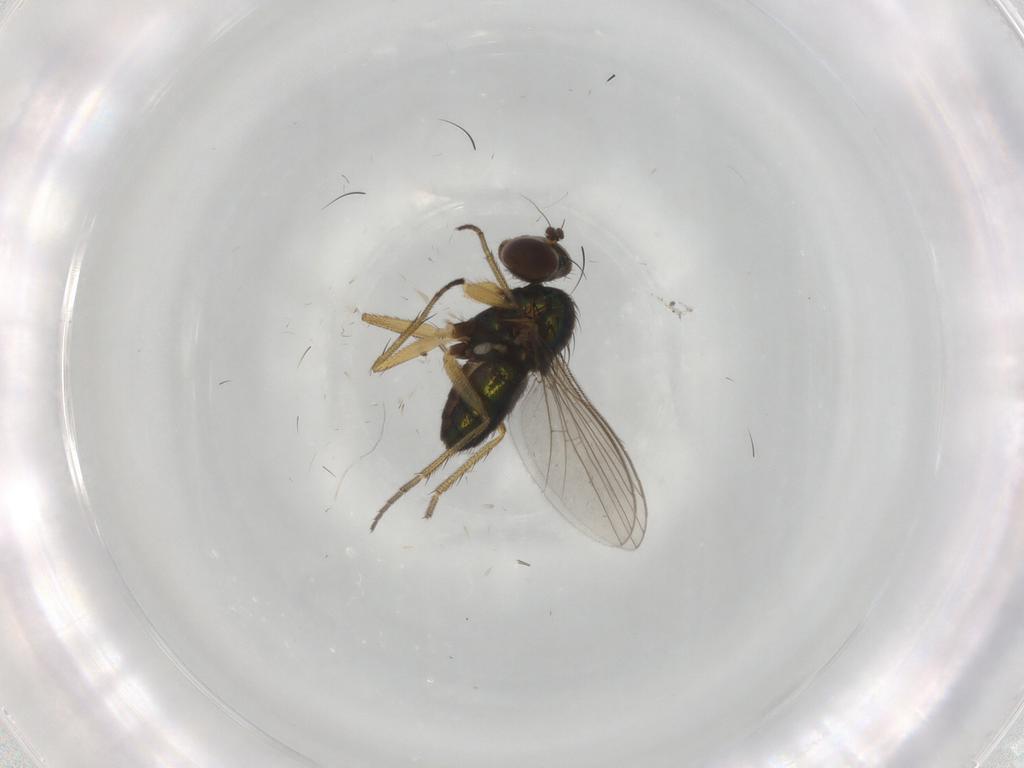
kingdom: Animalia
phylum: Arthropoda
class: Insecta
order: Diptera
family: Dolichopodidae
